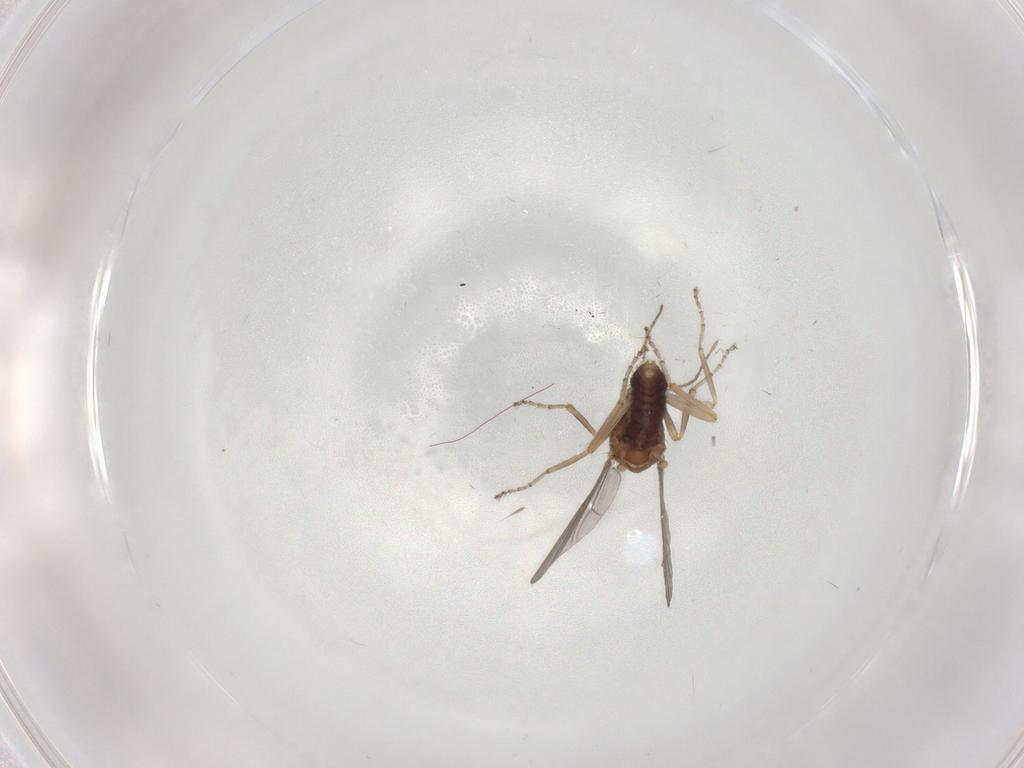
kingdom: Animalia
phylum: Arthropoda
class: Insecta
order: Diptera
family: Ceratopogonidae
